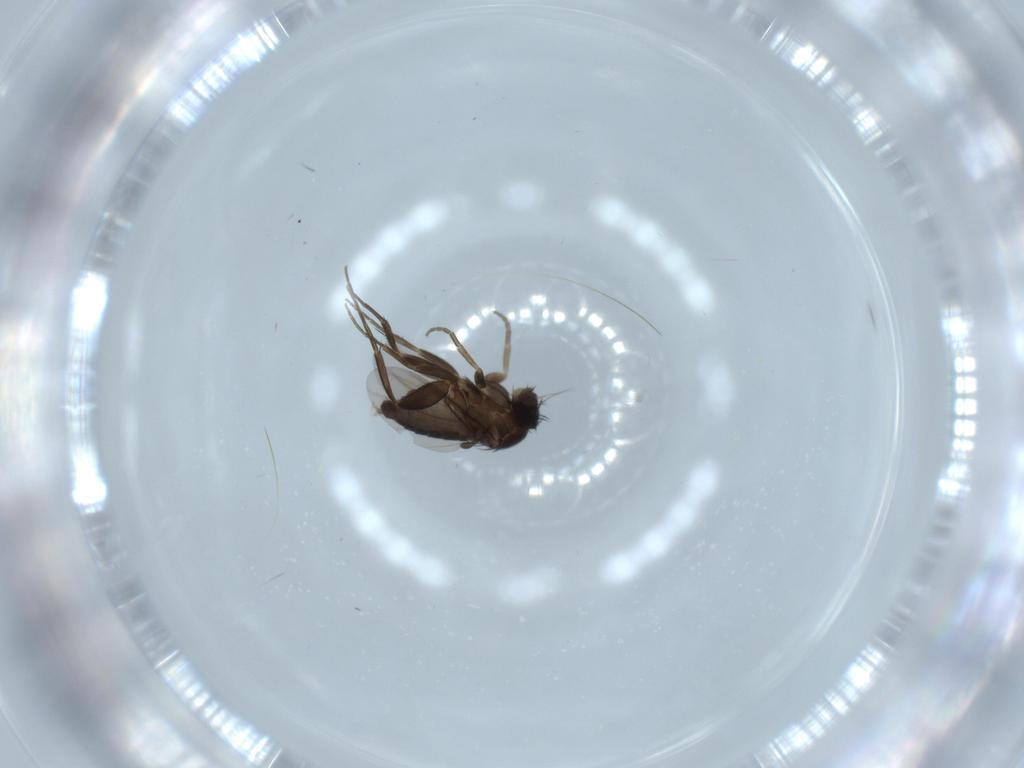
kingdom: Animalia
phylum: Arthropoda
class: Insecta
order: Diptera
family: Phoridae
